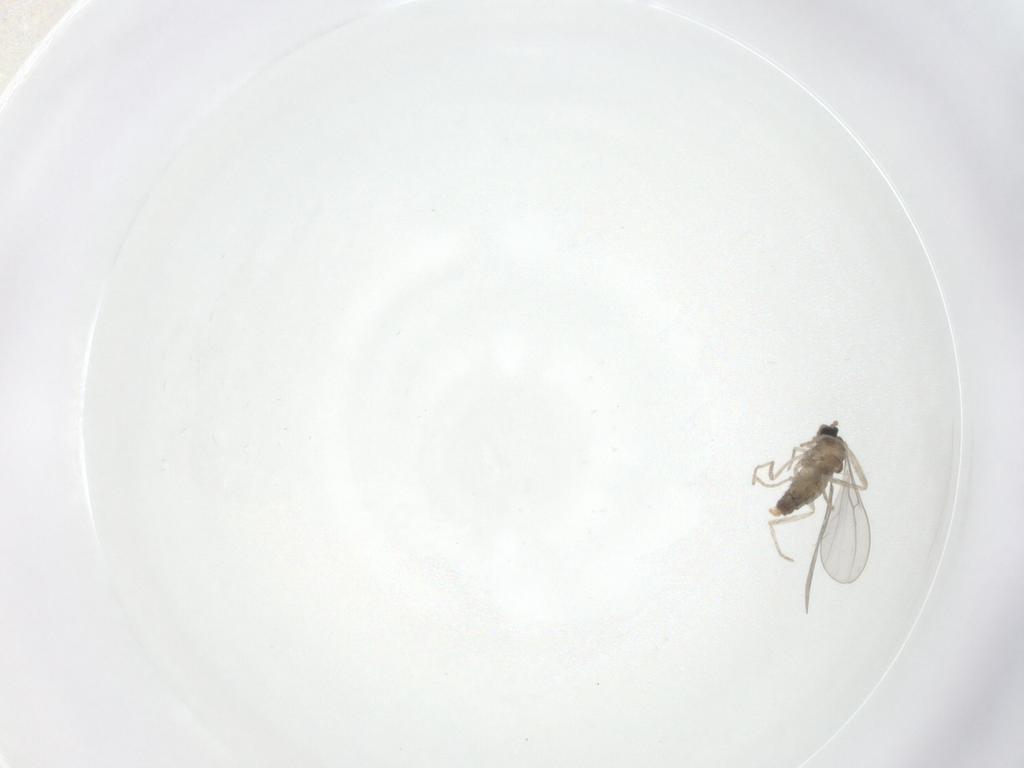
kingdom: Animalia
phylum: Arthropoda
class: Insecta
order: Diptera
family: Cecidomyiidae
